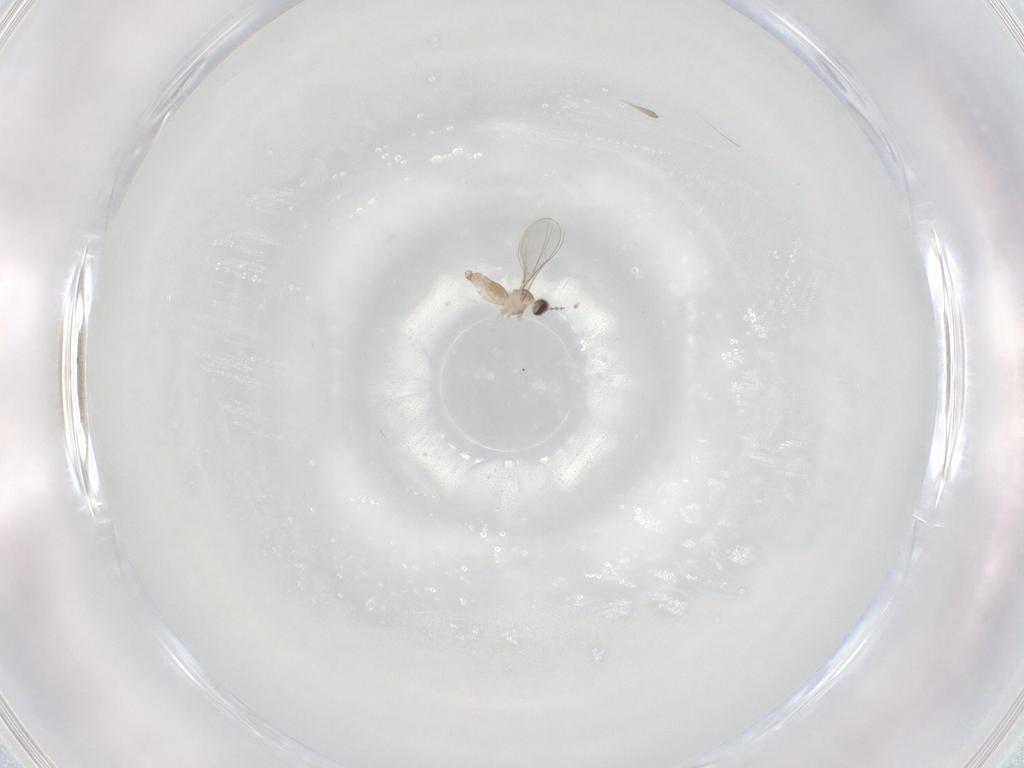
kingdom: Animalia
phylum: Arthropoda
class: Insecta
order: Diptera
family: Cecidomyiidae
